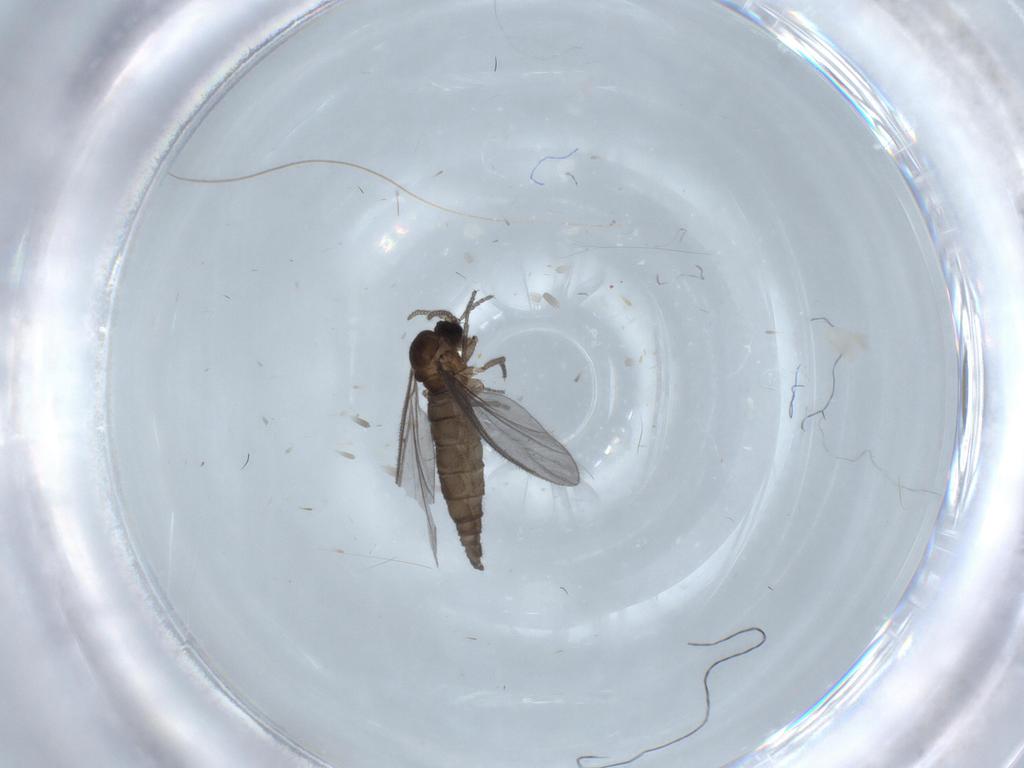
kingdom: Animalia
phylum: Arthropoda
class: Insecta
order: Diptera
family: Sciaridae
